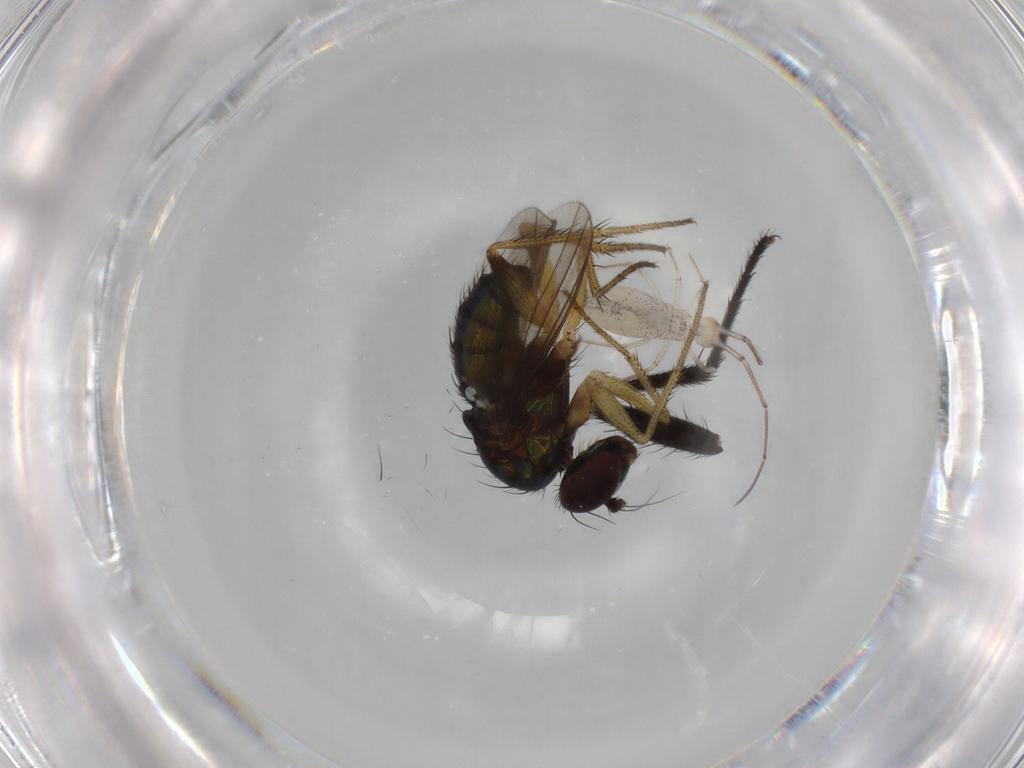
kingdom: Animalia
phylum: Arthropoda
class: Insecta
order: Diptera
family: Dolichopodidae
